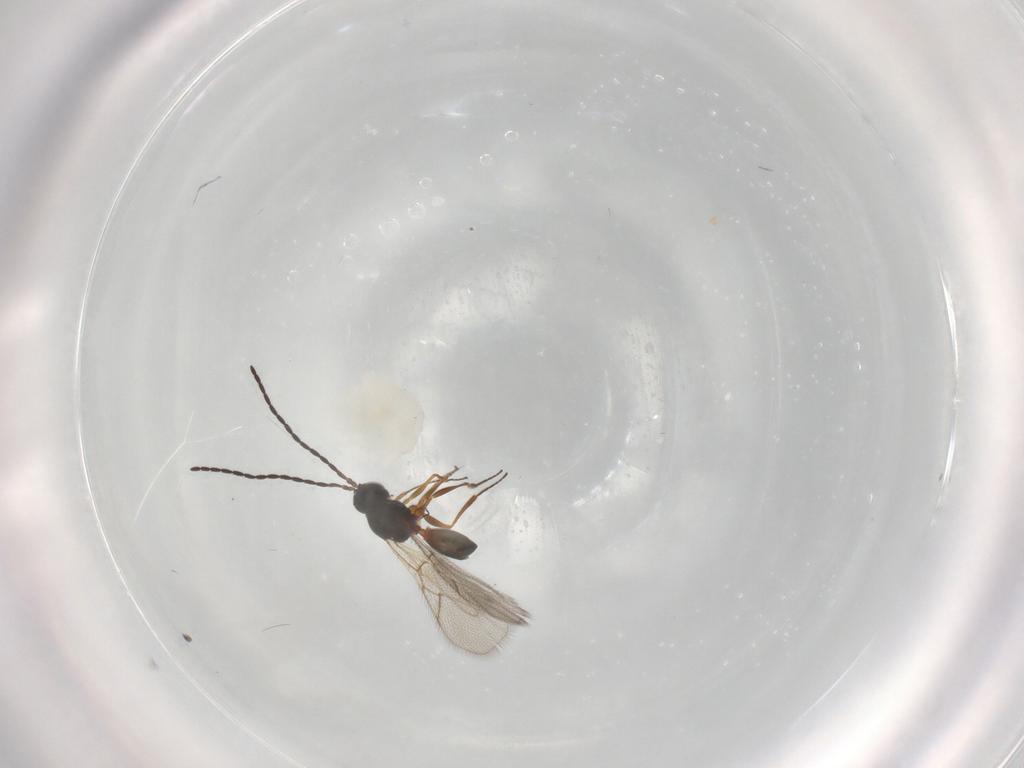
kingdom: Animalia
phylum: Arthropoda
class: Insecta
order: Hymenoptera
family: Figitidae
